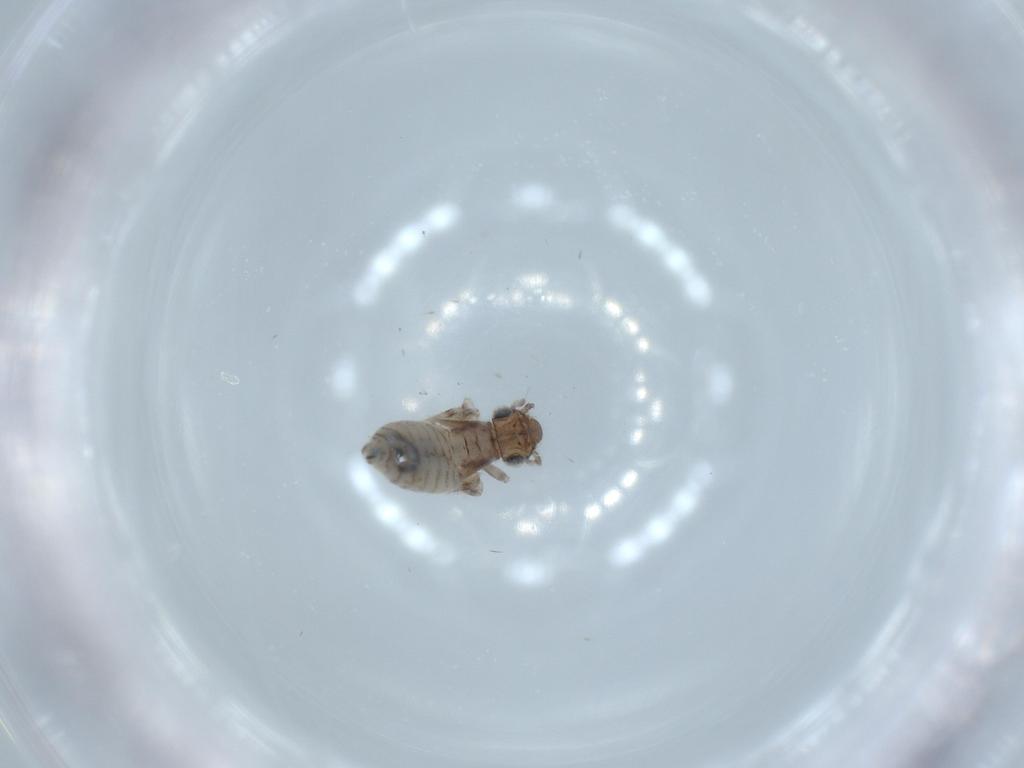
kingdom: Animalia
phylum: Arthropoda
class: Insecta
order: Psocodea
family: Lepidopsocidae
